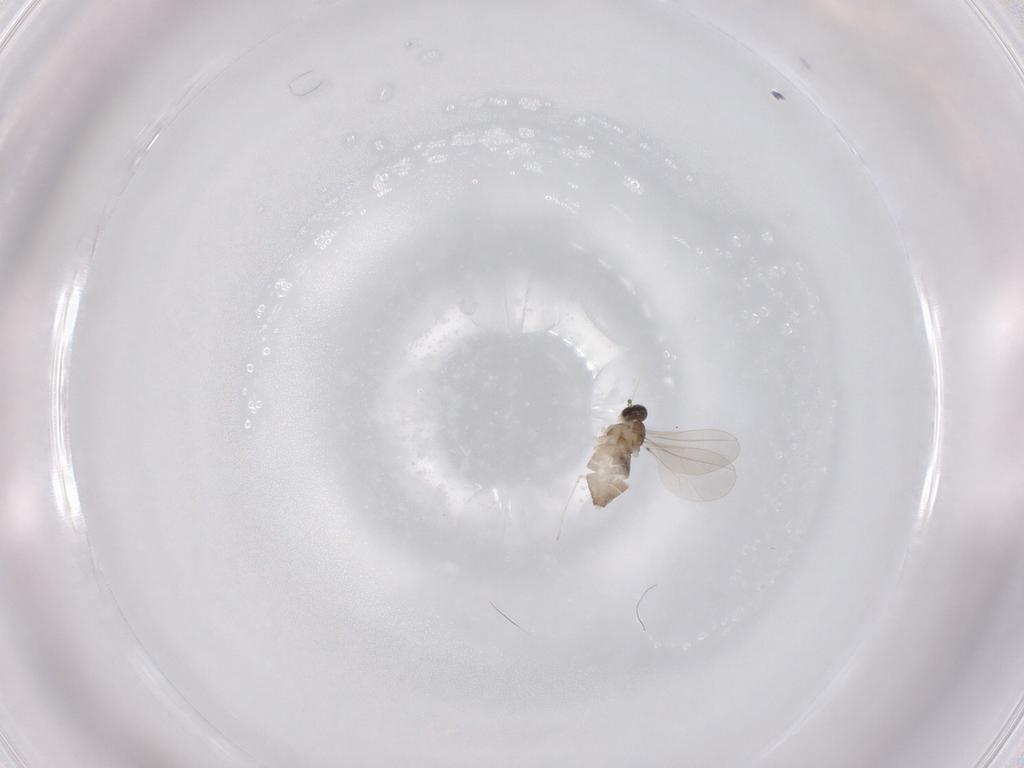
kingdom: Animalia
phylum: Arthropoda
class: Insecta
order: Diptera
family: Cecidomyiidae
